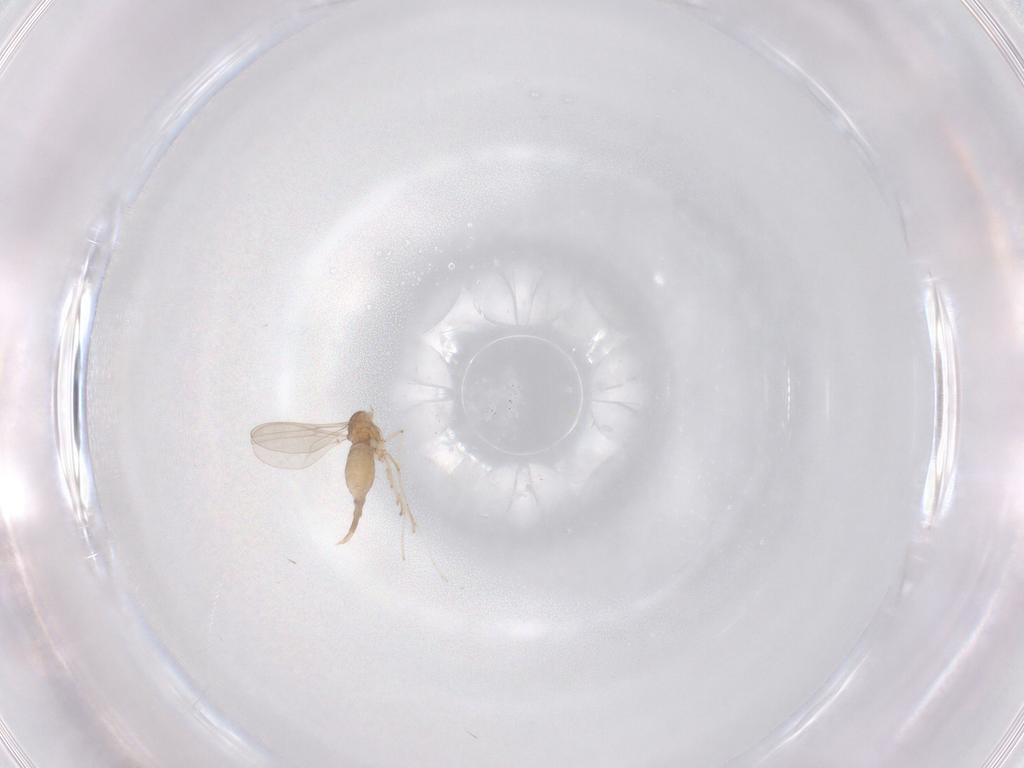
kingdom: Animalia
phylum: Arthropoda
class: Insecta
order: Diptera
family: Cecidomyiidae
